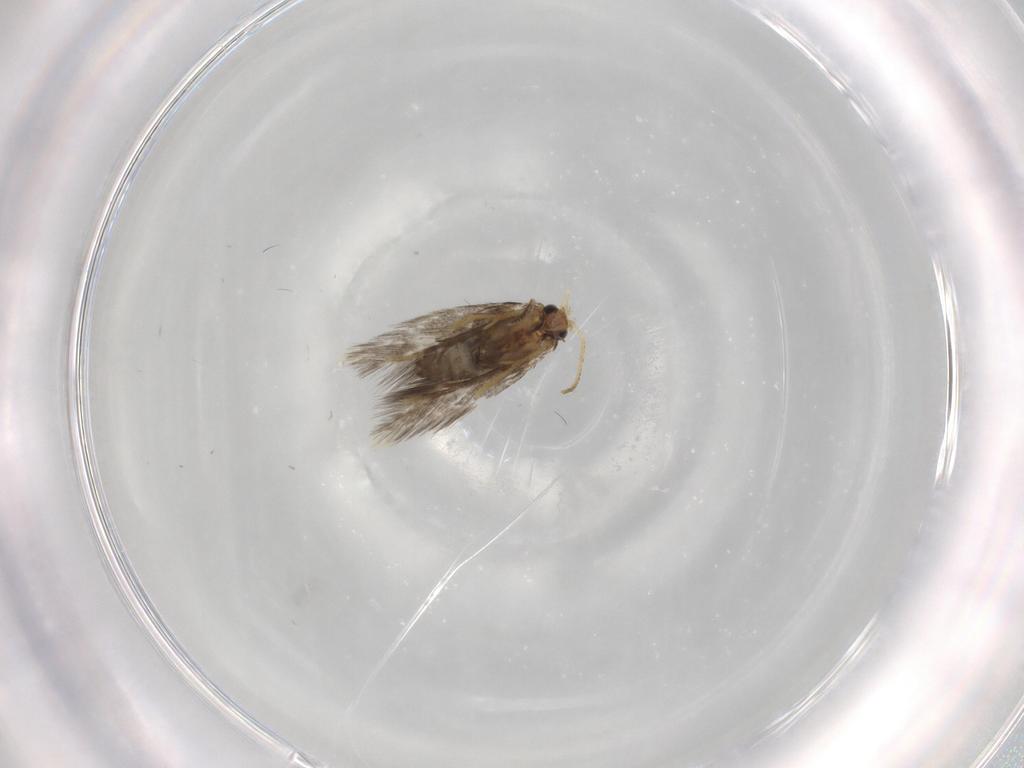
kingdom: Animalia
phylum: Arthropoda
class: Insecta
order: Lepidoptera
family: Copromorphidae
